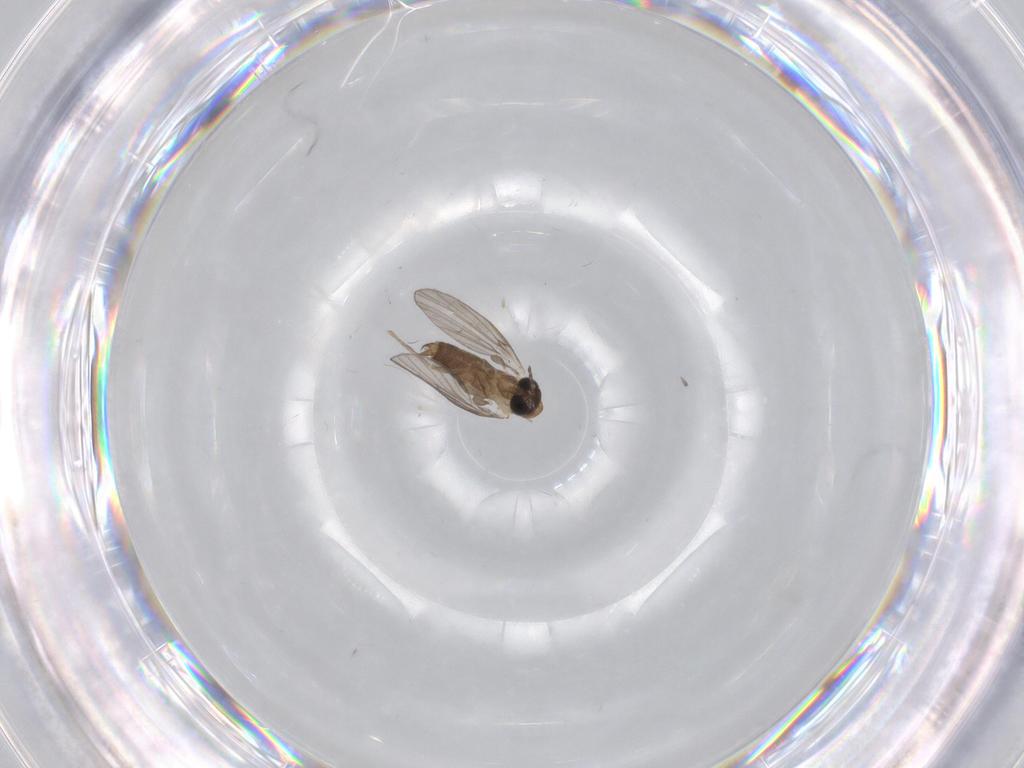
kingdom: Animalia
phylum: Arthropoda
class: Insecta
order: Diptera
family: Psychodidae
